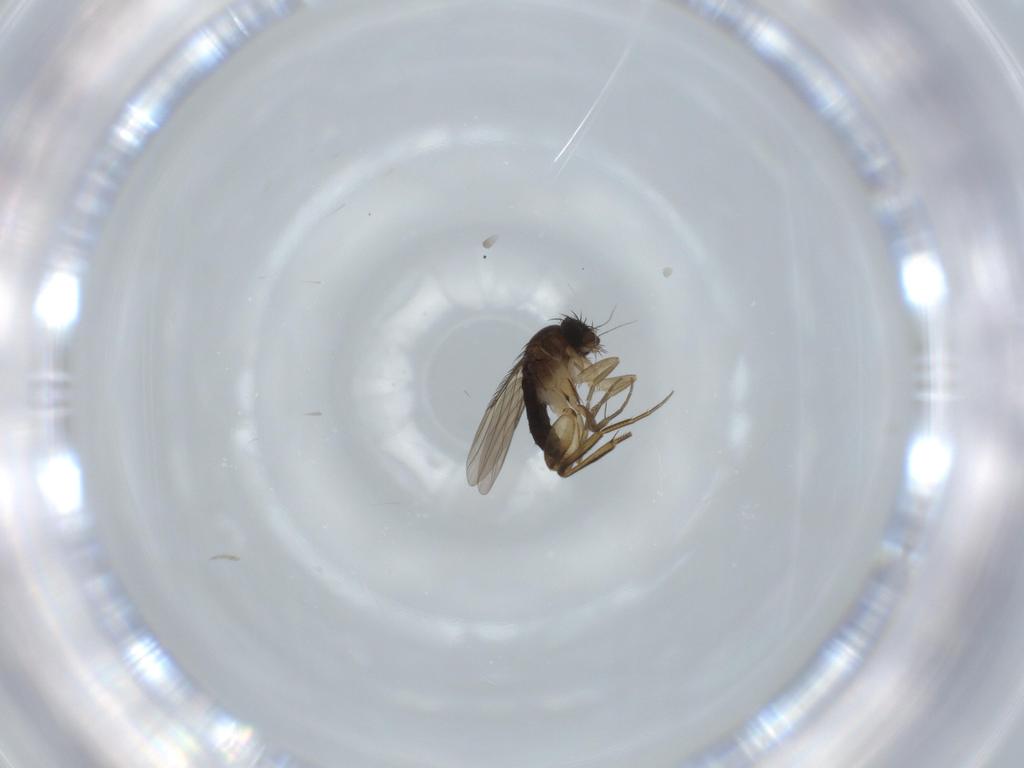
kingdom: Animalia
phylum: Arthropoda
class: Insecta
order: Diptera
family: Phoridae
